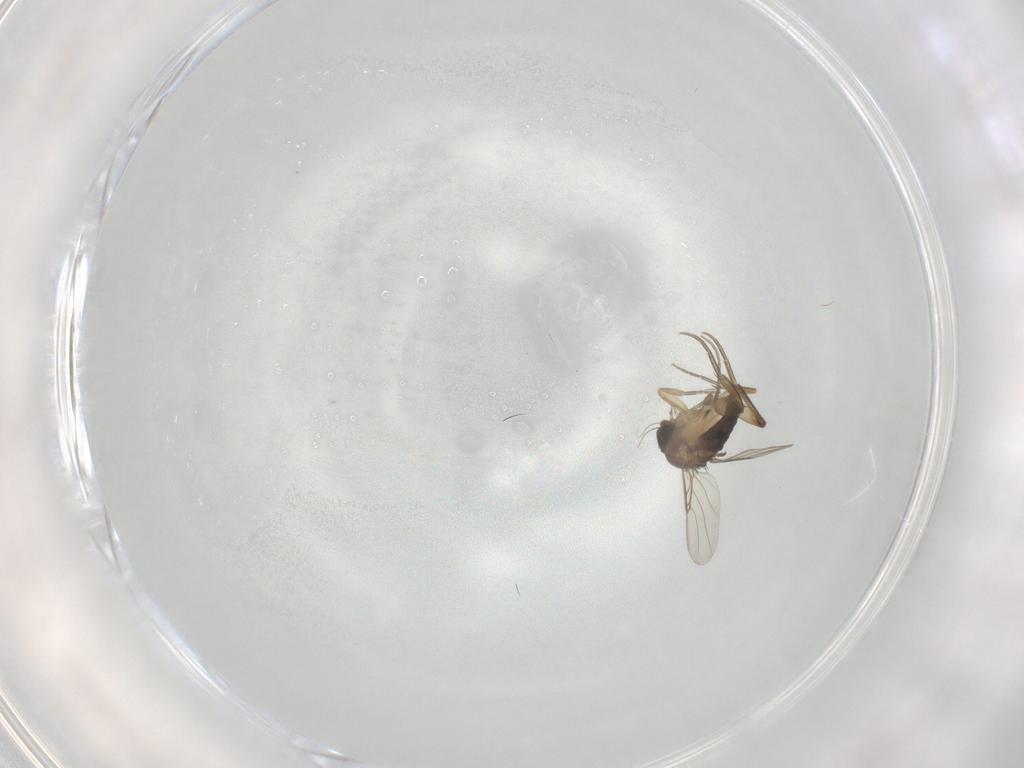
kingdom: Animalia
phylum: Arthropoda
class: Insecta
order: Diptera
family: Phoridae
